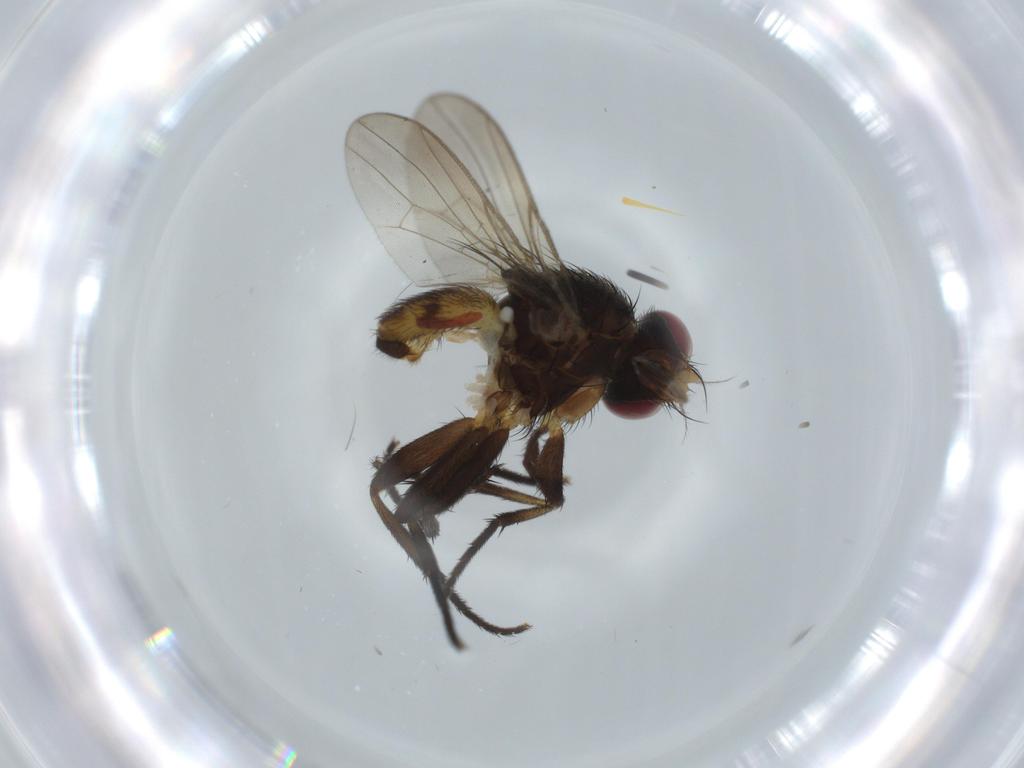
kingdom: Animalia
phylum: Arthropoda
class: Insecta
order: Diptera
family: Anthomyiidae
